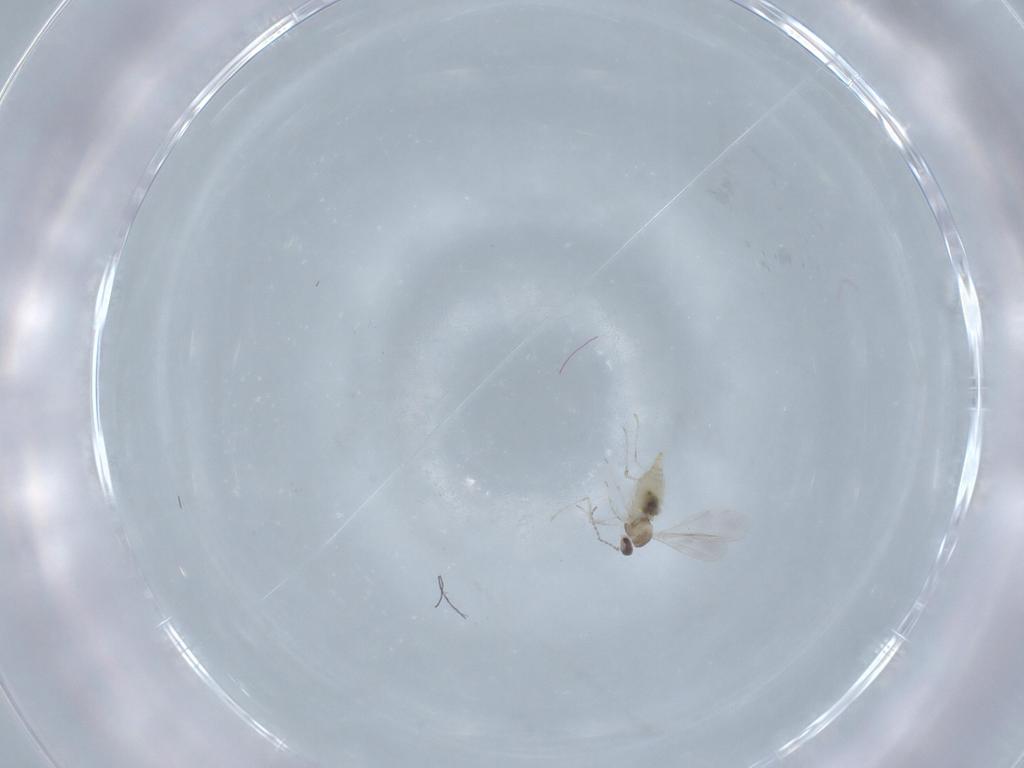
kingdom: Animalia
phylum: Arthropoda
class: Insecta
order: Diptera
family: Cecidomyiidae
